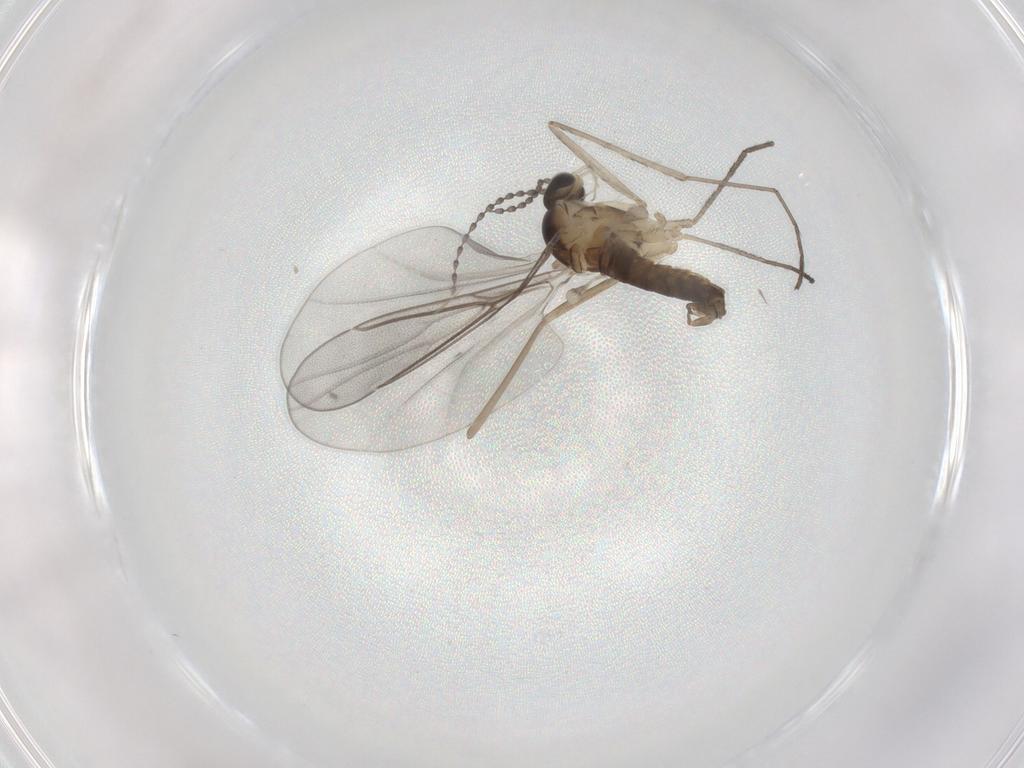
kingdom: Animalia
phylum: Arthropoda
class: Insecta
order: Diptera
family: Cecidomyiidae
